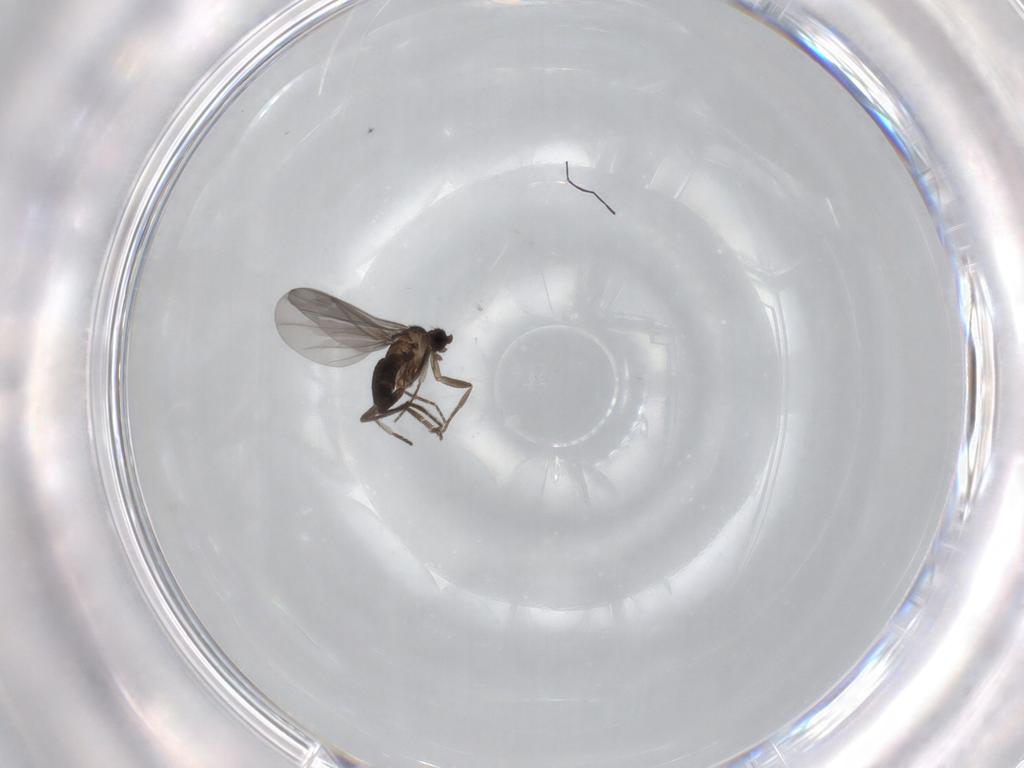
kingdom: Animalia
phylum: Arthropoda
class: Insecta
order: Diptera
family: Phoridae
